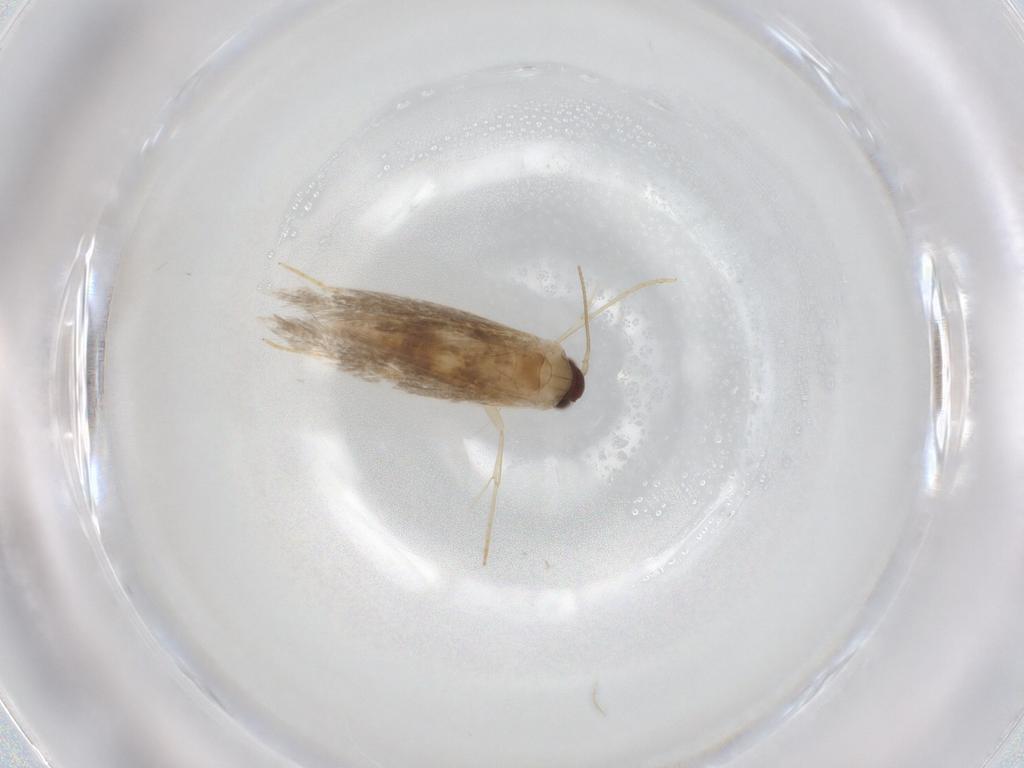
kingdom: Animalia
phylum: Arthropoda
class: Insecta
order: Lepidoptera
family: Tineidae
